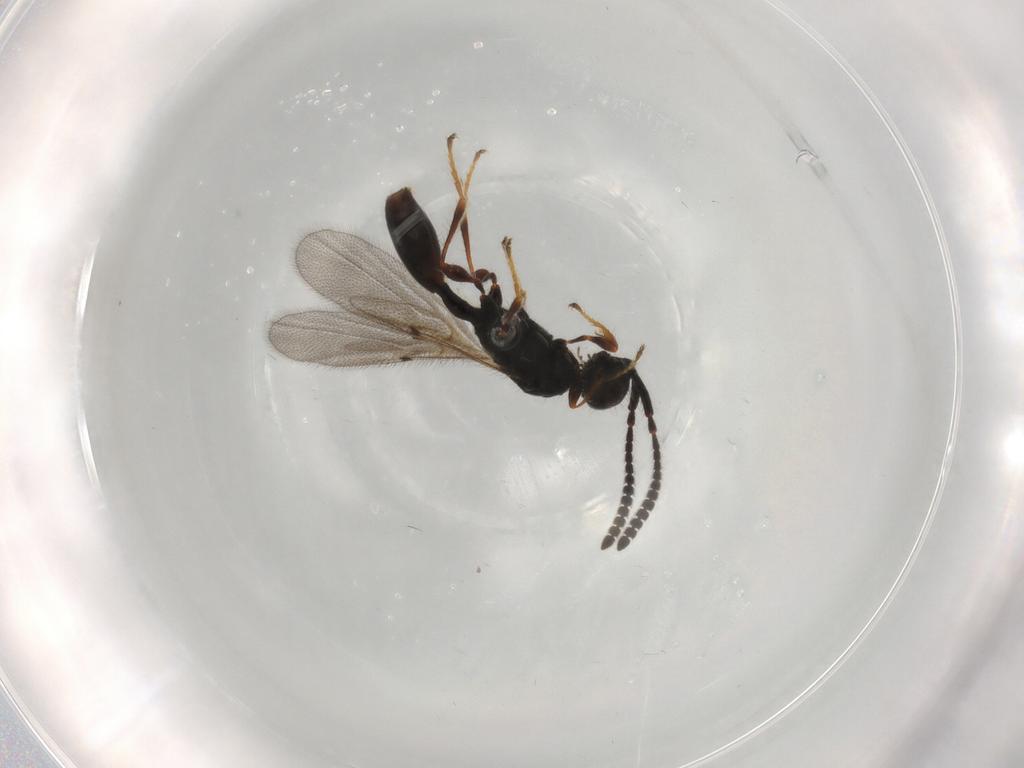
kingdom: Animalia
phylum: Arthropoda
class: Insecta
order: Hymenoptera
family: Diapriidae
